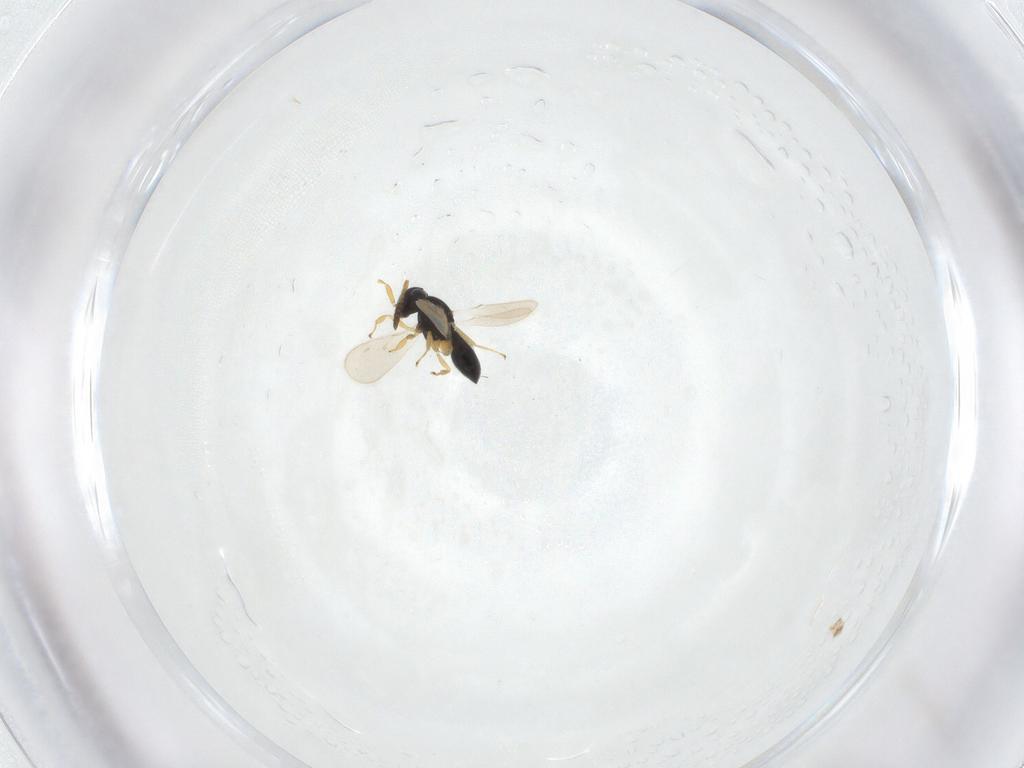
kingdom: Animalia
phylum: Arthropoda
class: Insecta
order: Hymenoptera
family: Scelionidae
